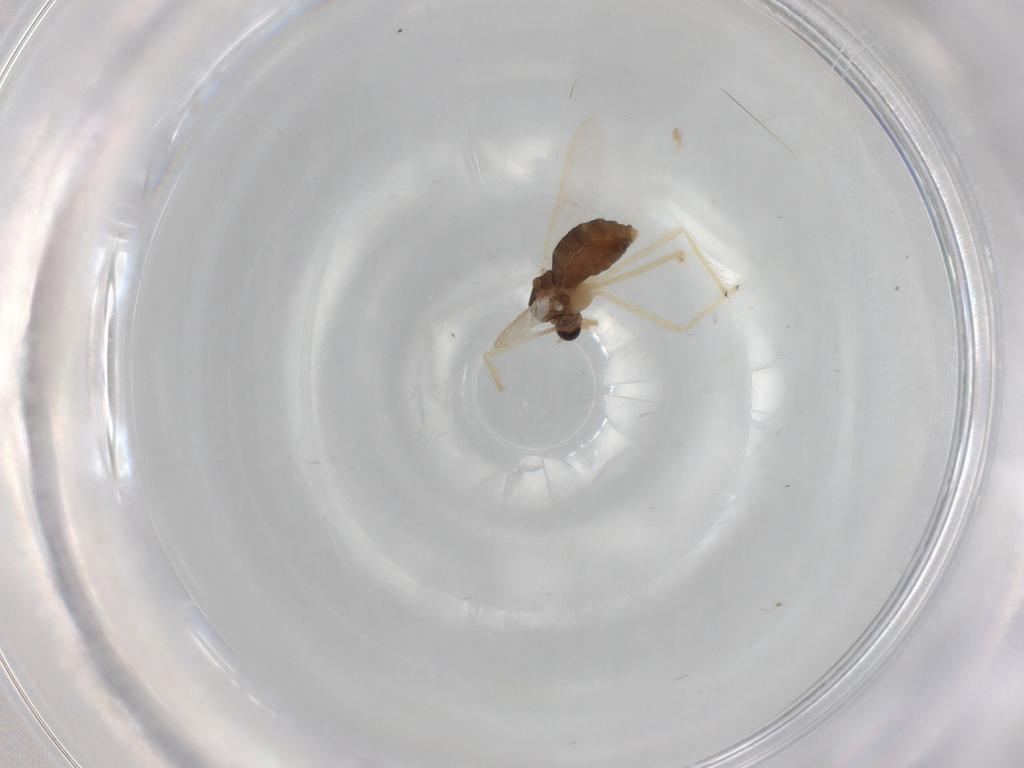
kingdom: Animalia
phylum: Arthropoda
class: Insecta
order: Diptera
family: Chironomidae
